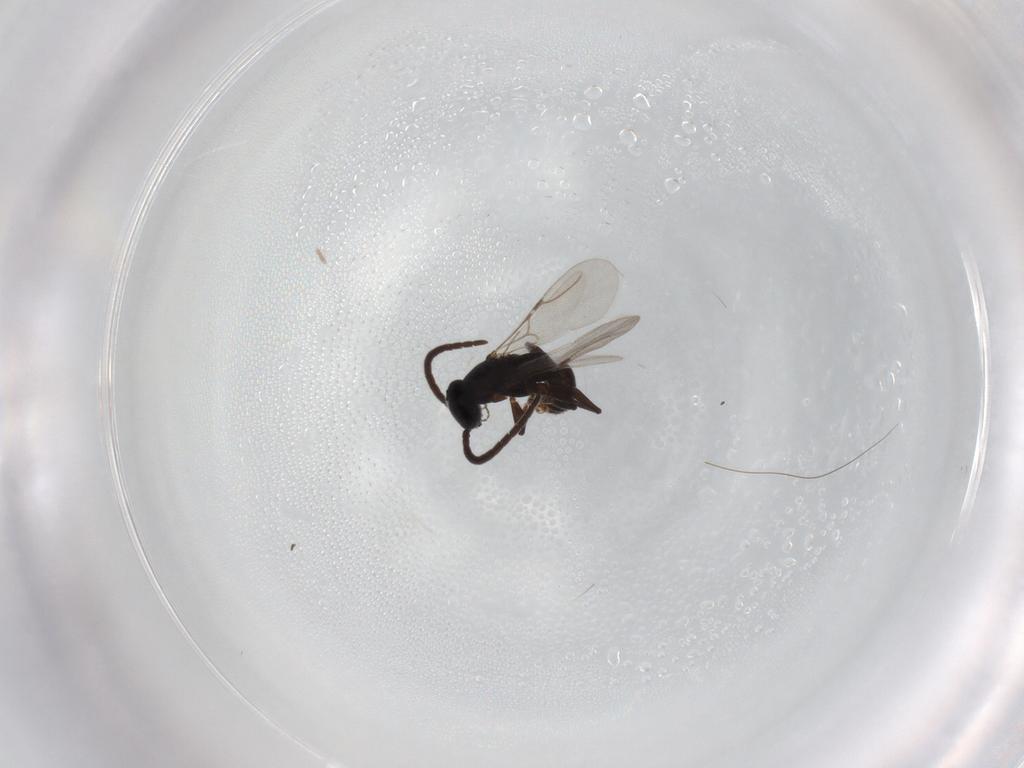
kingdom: Animalia
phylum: Arthropoda
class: Insecta
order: Hymenoptera
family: Bethylidae
